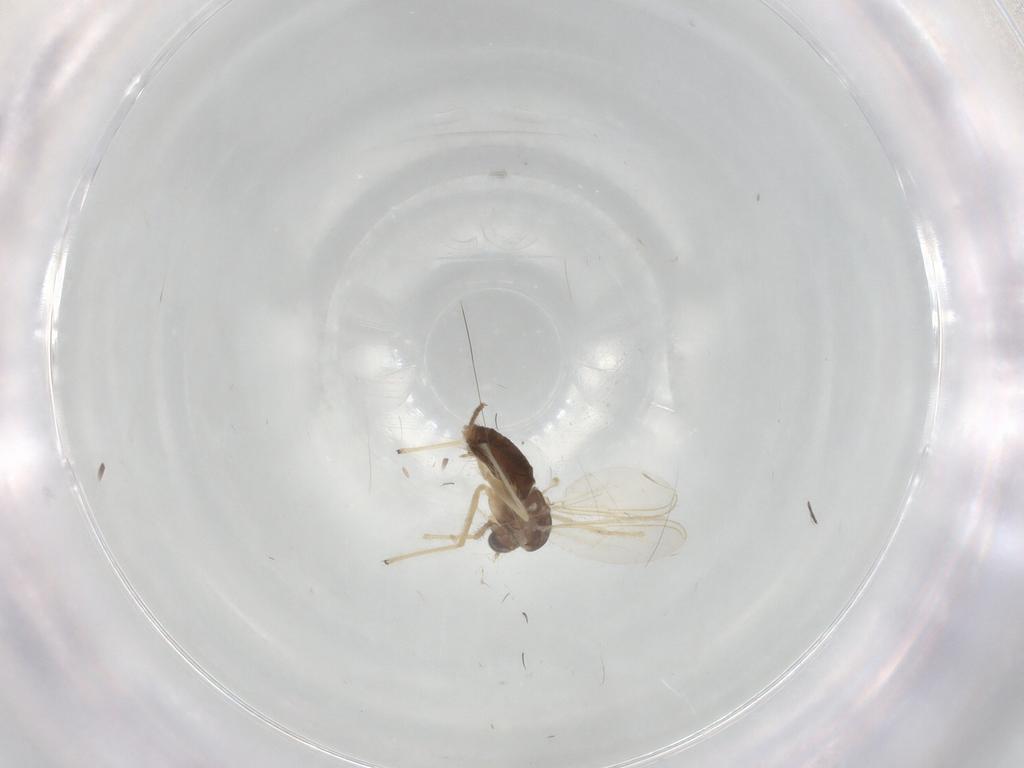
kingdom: Animalia
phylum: Arthropoda
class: Insecta
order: Diptera
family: Chironomidae
